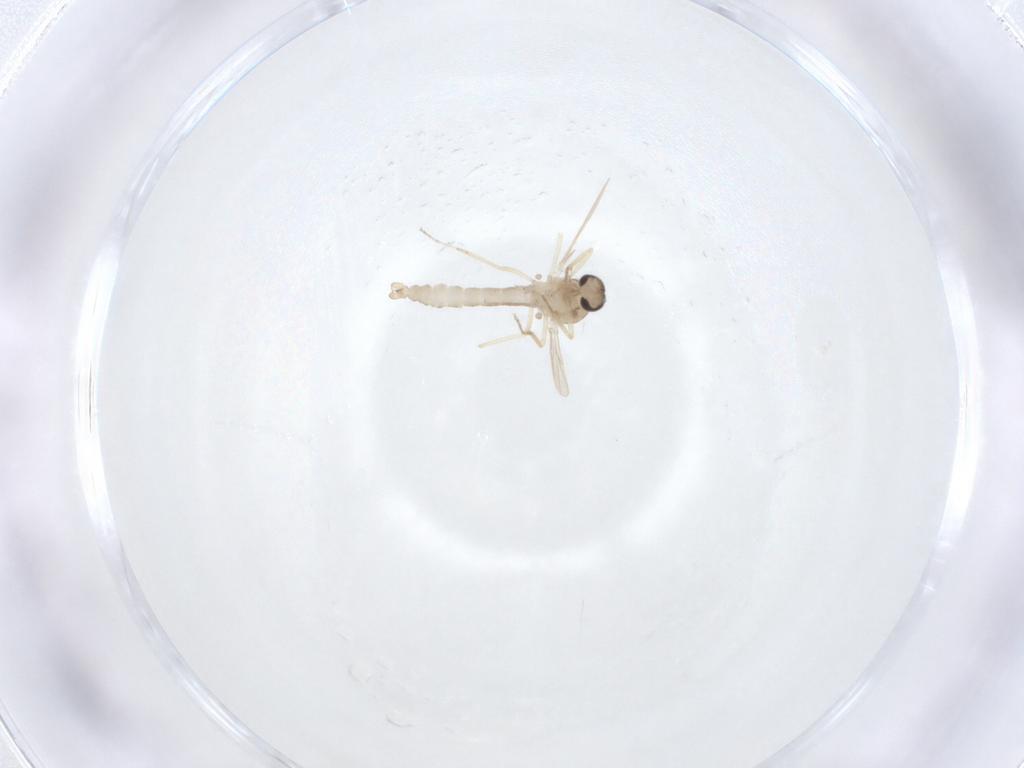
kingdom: Animalia
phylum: Arthropoda
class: Insecta
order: Diptera
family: Ceratopogonidae
